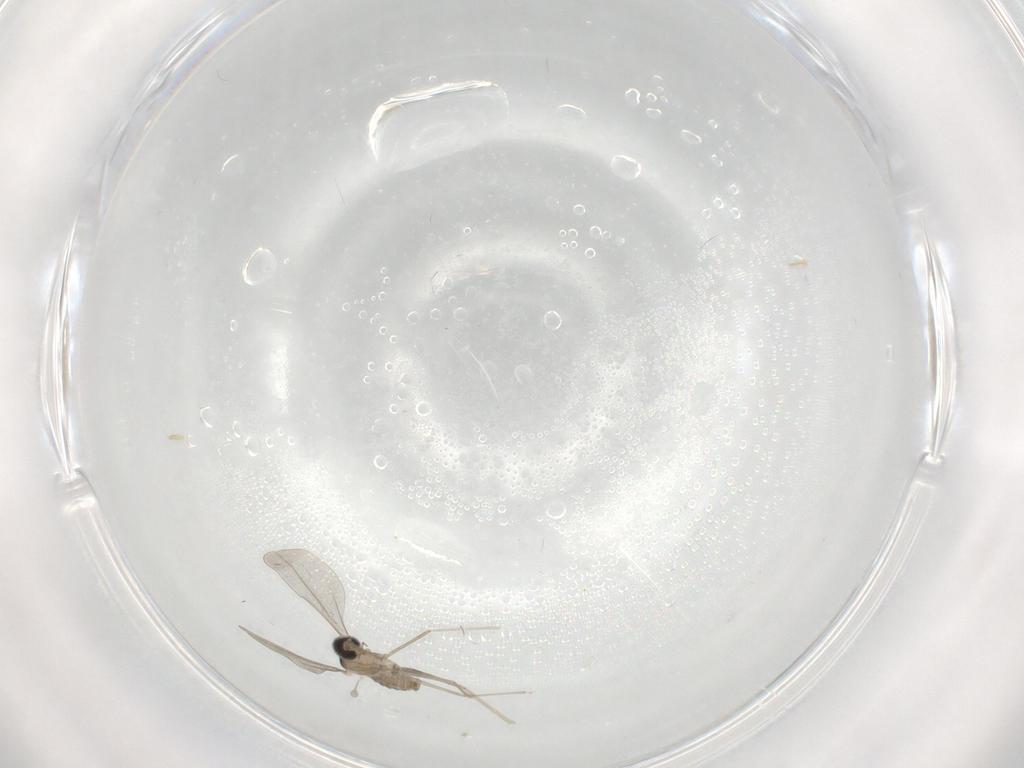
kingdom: Animalia
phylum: Arthropoda
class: Insecta
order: Diptera
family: Cecidomyiidae
